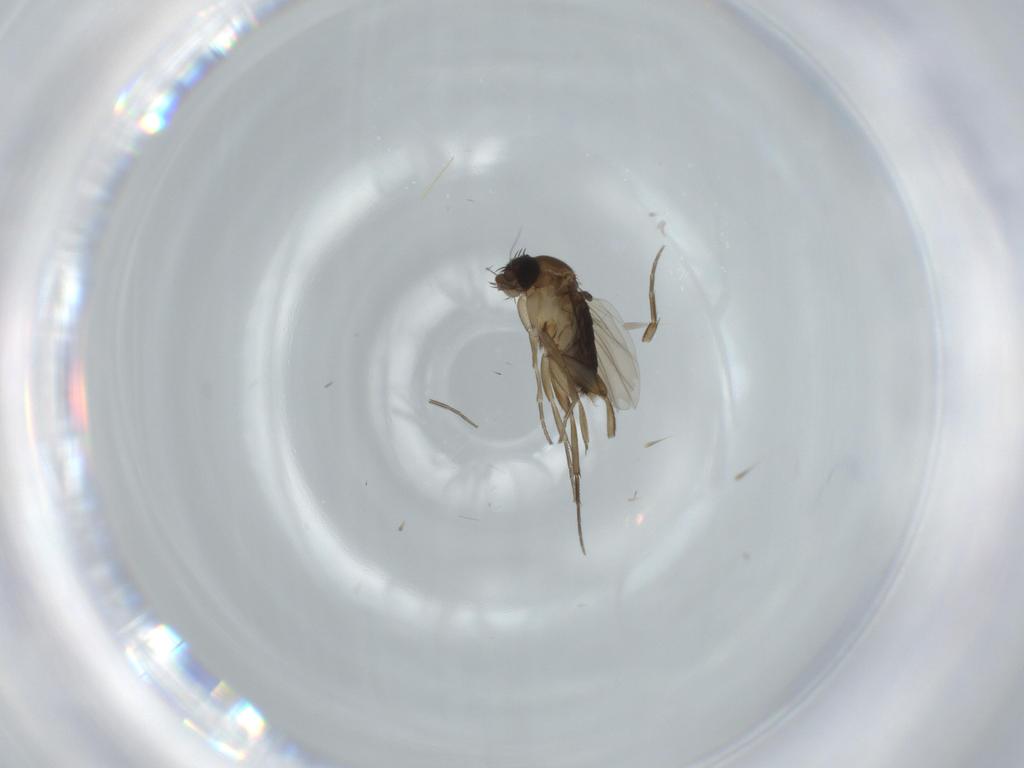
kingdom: Animalia
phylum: Arthropoda
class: Insecta
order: Diptera
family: Phoridae
